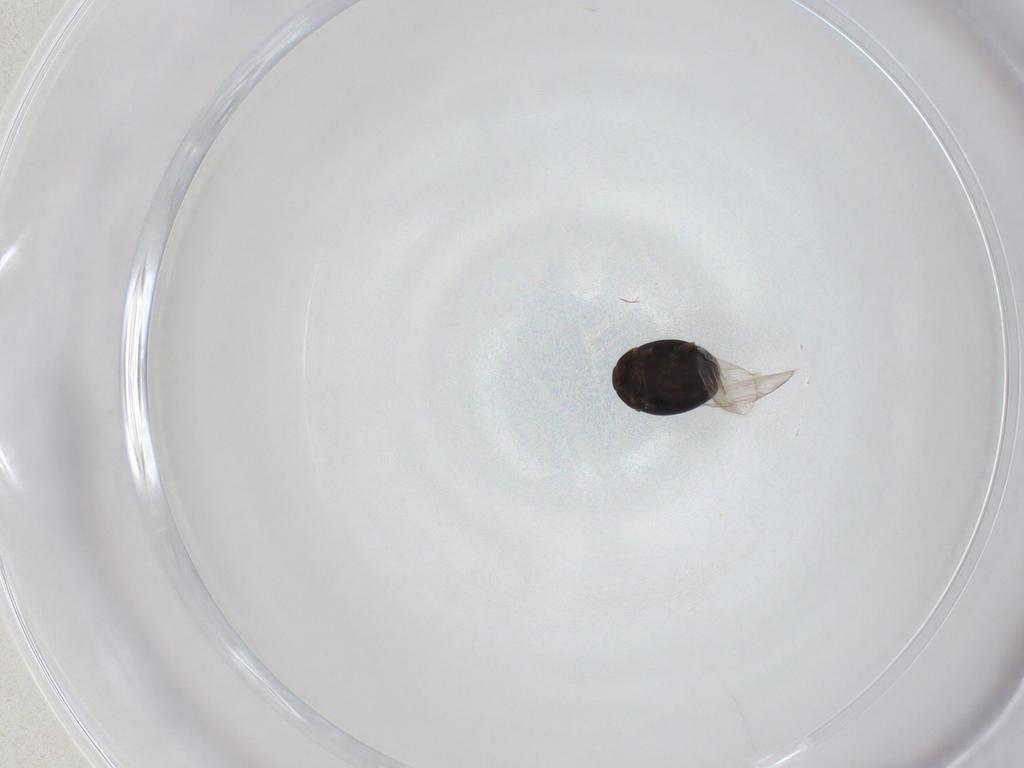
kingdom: Animalia
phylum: Arthropoda
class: Insecta
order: Coleoptera
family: Corylophidae
